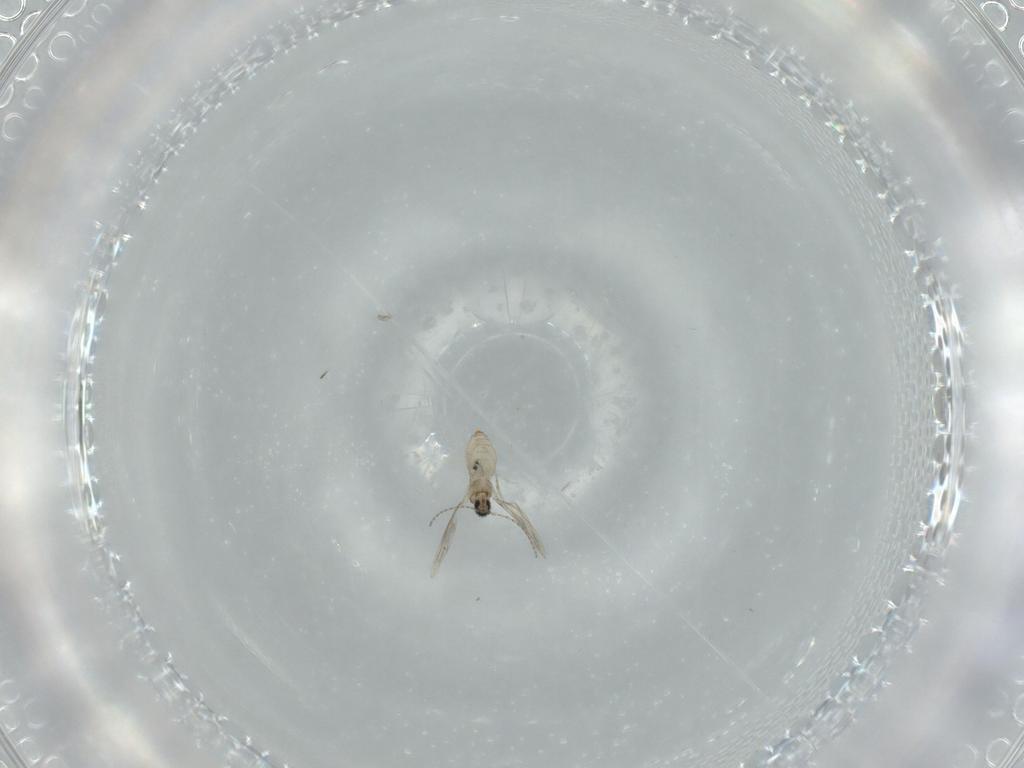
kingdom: Animalia
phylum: Arthropoda
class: Insecta
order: Diptera
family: Cecidomyiidae
